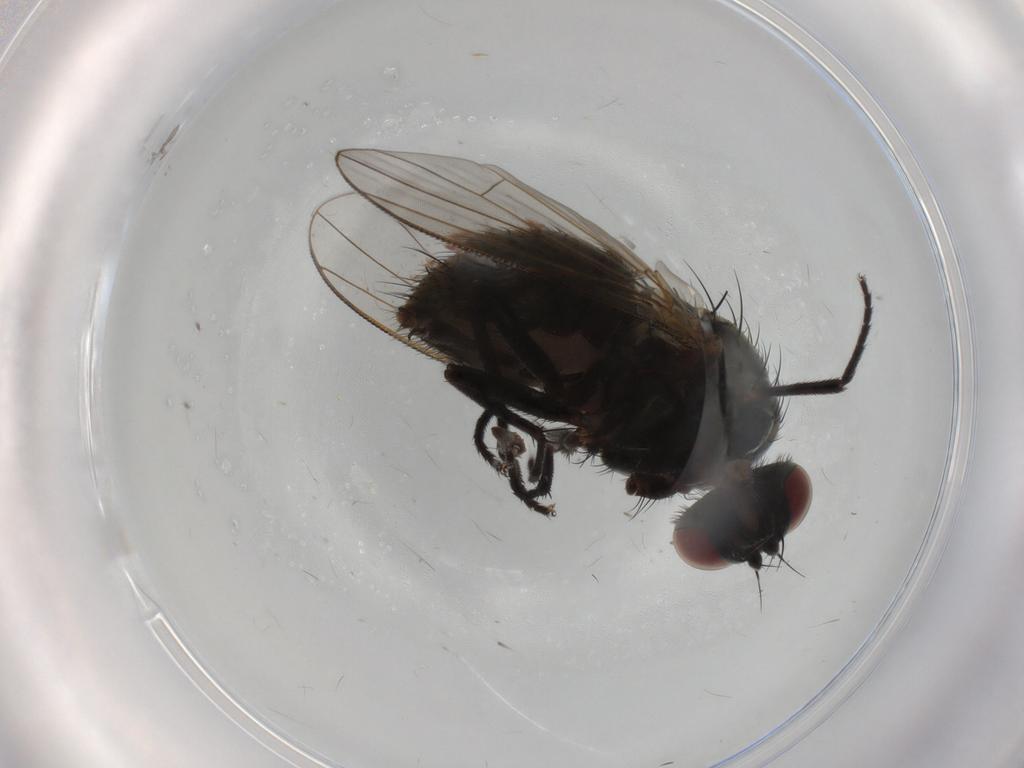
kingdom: Animalia
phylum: Arthropoda
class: Insecta
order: Diptera
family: Muscidae
